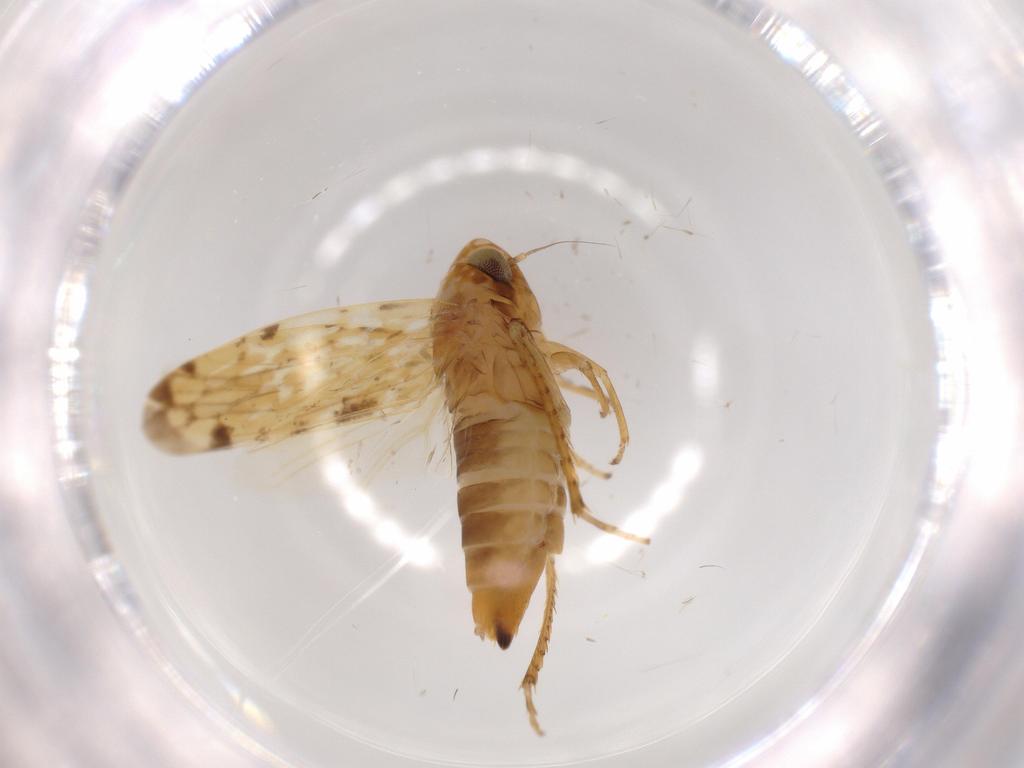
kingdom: Animalia
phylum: Arthropoda
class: Insecta
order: Hemiptera
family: Cicadellidae
